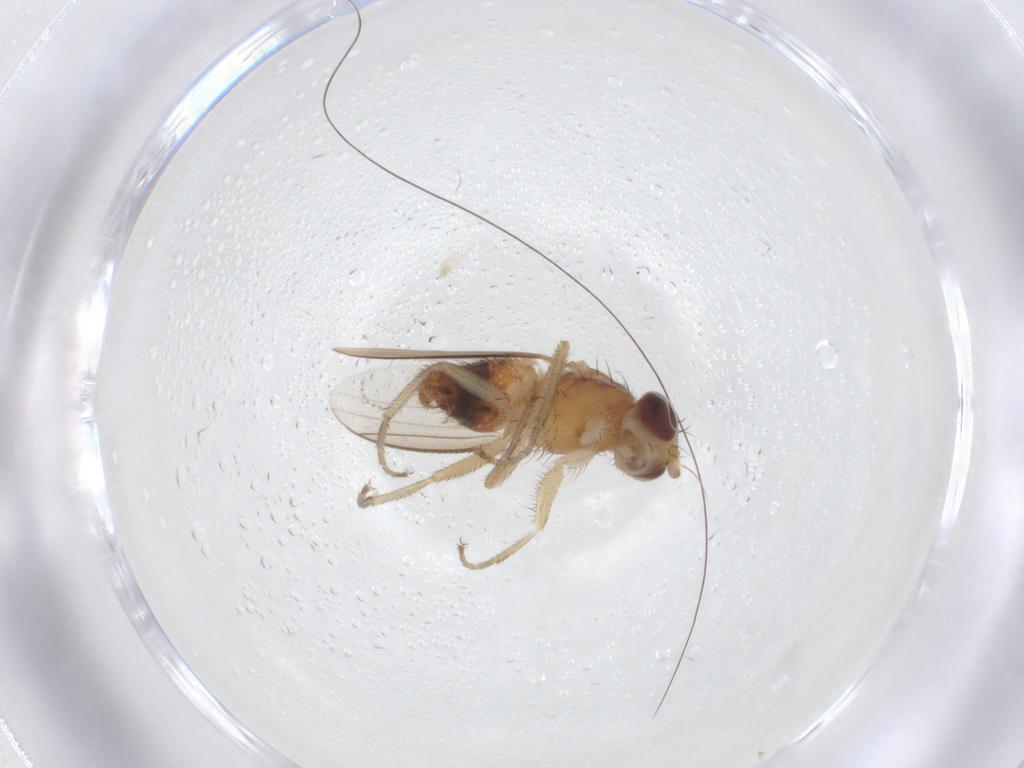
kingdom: Animalia
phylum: Arthropoda
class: Insecta
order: Diptera
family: Heleomyzidae
